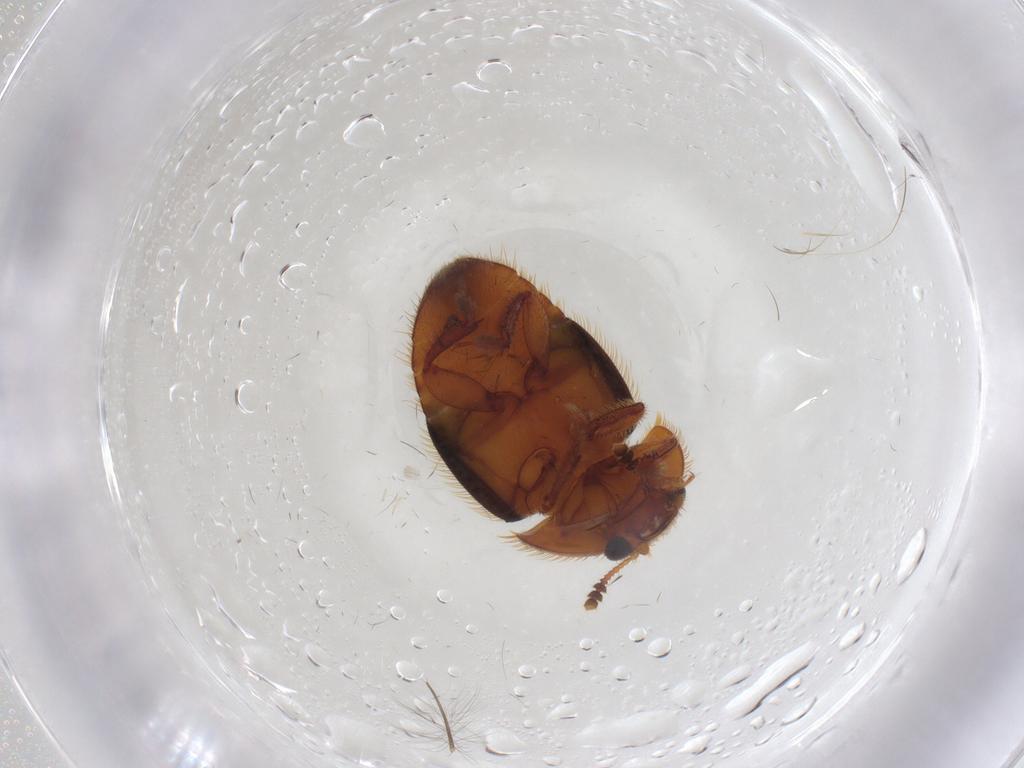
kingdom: Animalia
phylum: Arthropoda
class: Insecta
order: Coleoptera
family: Nitidulidae
